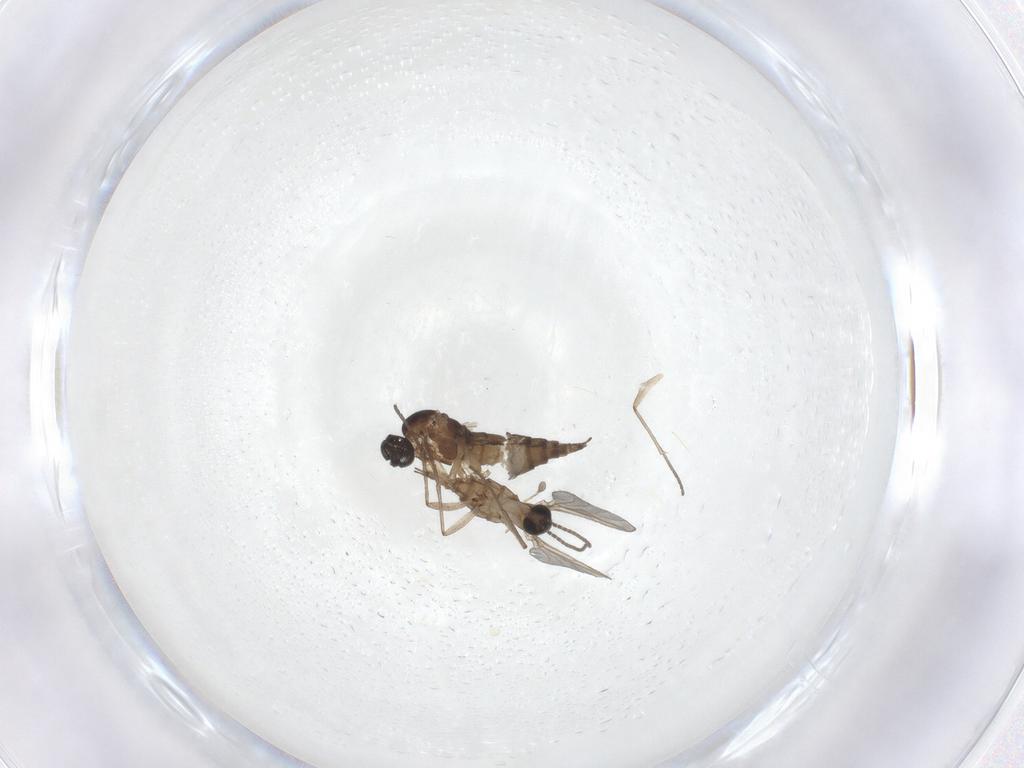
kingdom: Animalia
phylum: Arthropoda
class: Insecta
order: Diptera
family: Sciaridae
